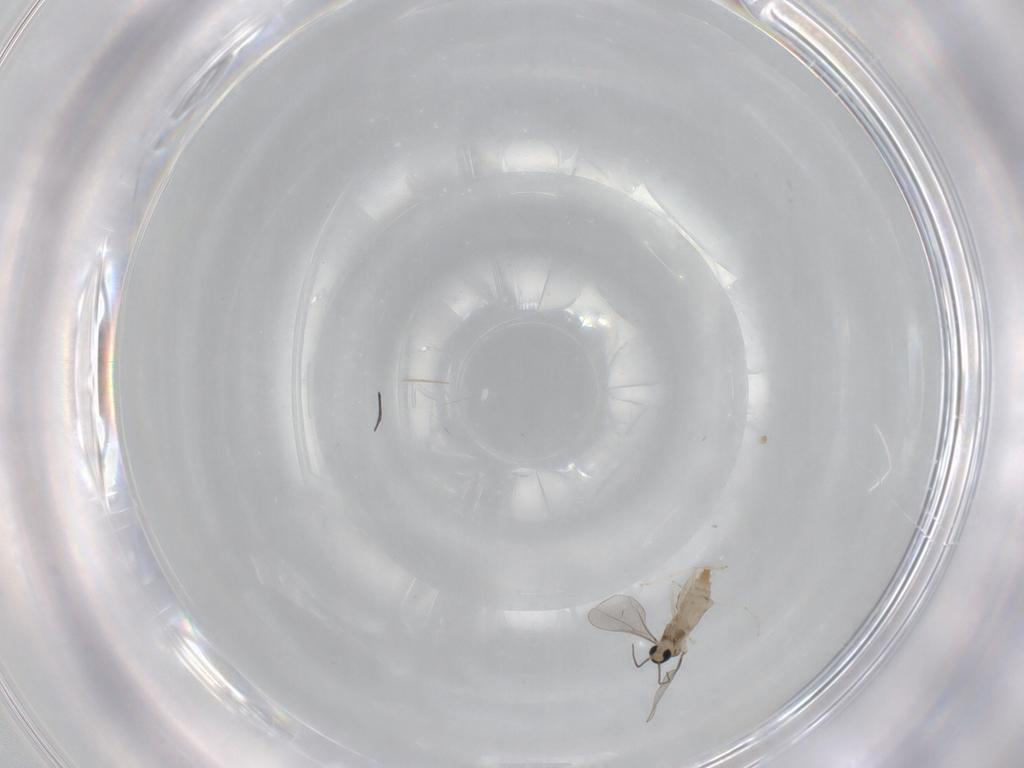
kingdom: Animalia
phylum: Arthropoda
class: Insecta
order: Diptera
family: Cecidomyiidae
